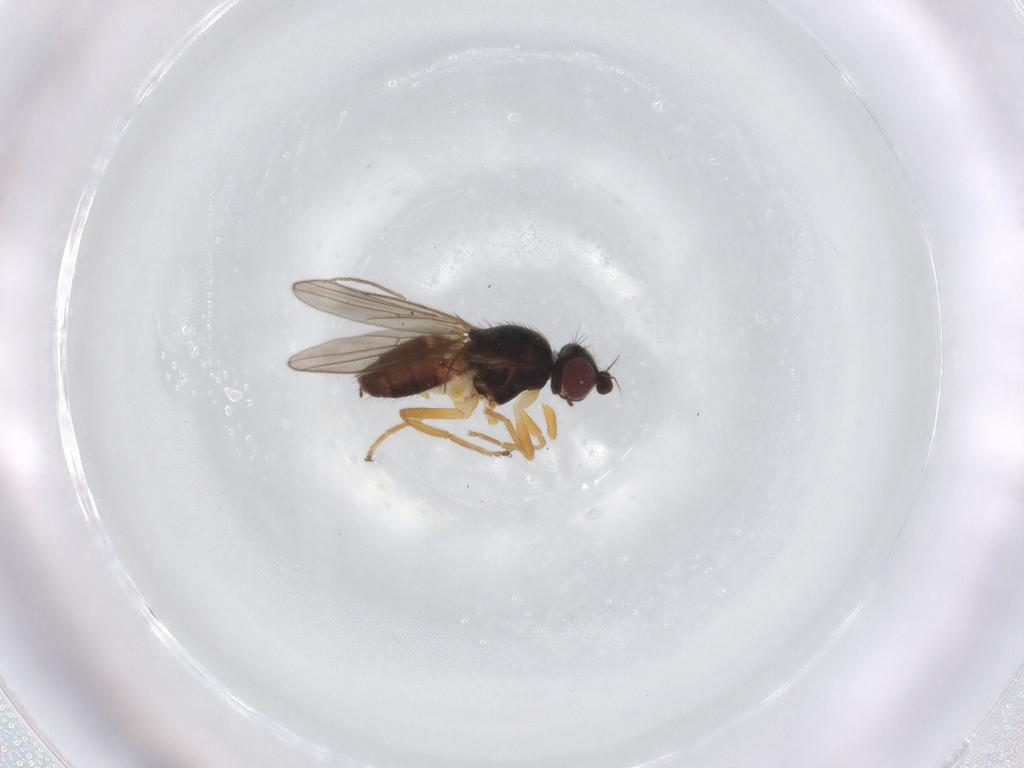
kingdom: Animalia
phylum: Arthropoda
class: Insecta
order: Diptera
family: Chloropidae
